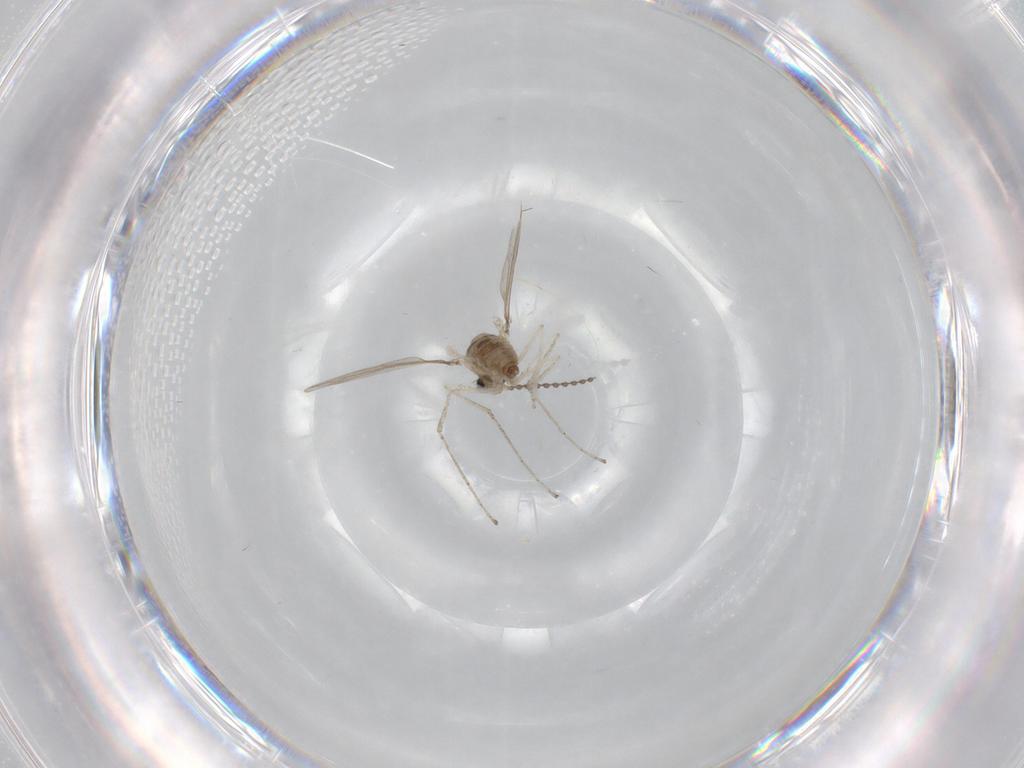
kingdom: Animalia
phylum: Arthropoda
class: Insecta
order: Diptera
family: Cecidomyiidae
